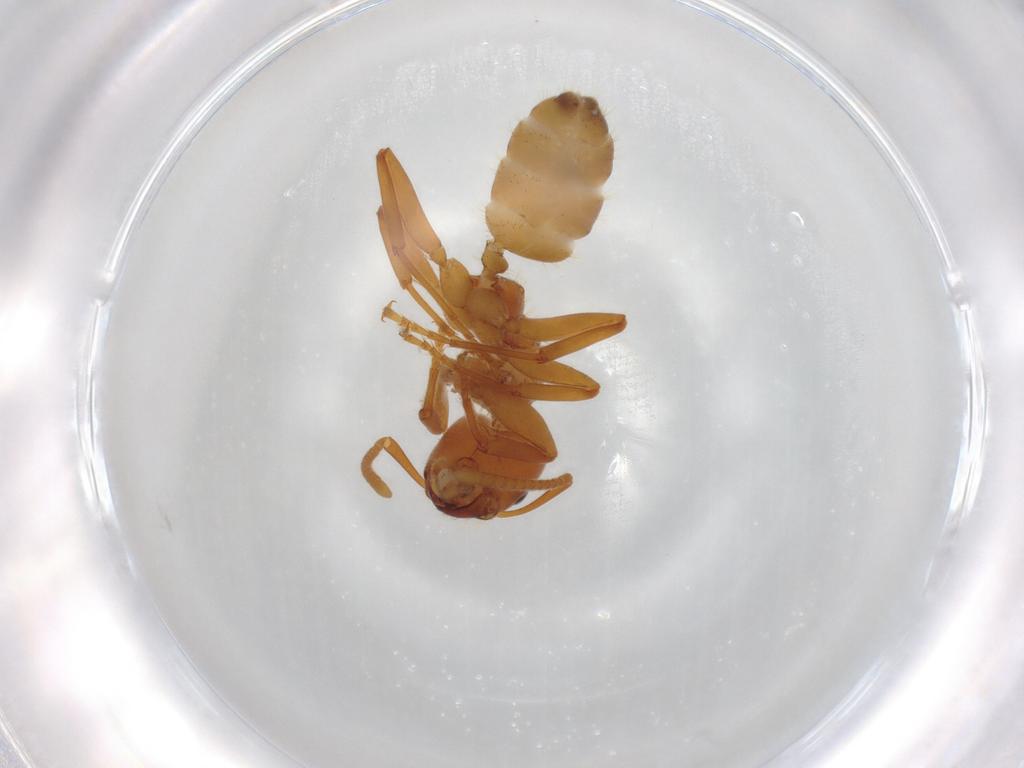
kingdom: Animalia
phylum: Arthropoda
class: Insecta
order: Hymenoptera
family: Formicidae
